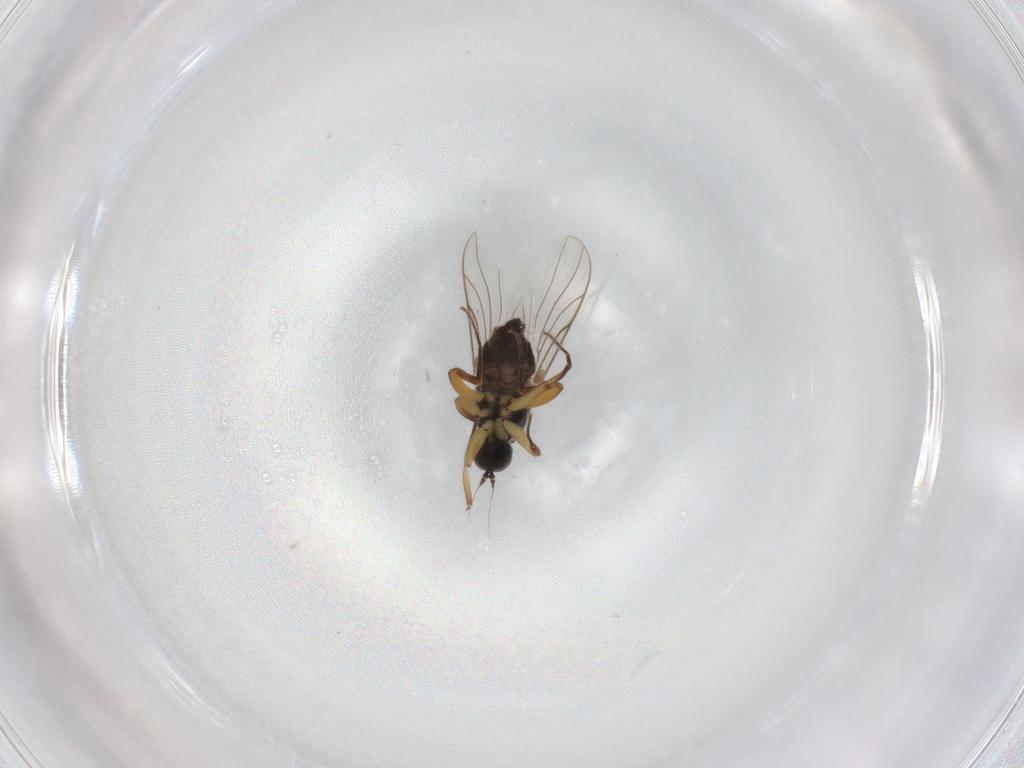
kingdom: Animalia
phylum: Arthropoda
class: Insecta
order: Diptera
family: Hybotidae
